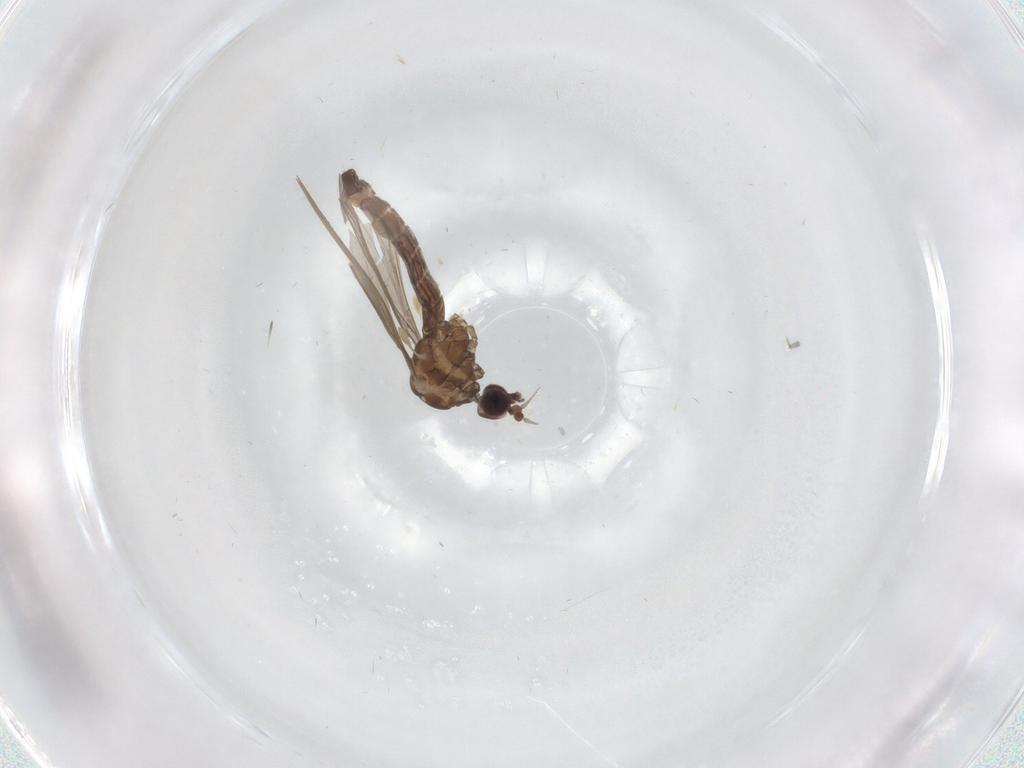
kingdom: Animalia
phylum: Arthropoda
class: Insecta
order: Diptera
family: Limoniidae
